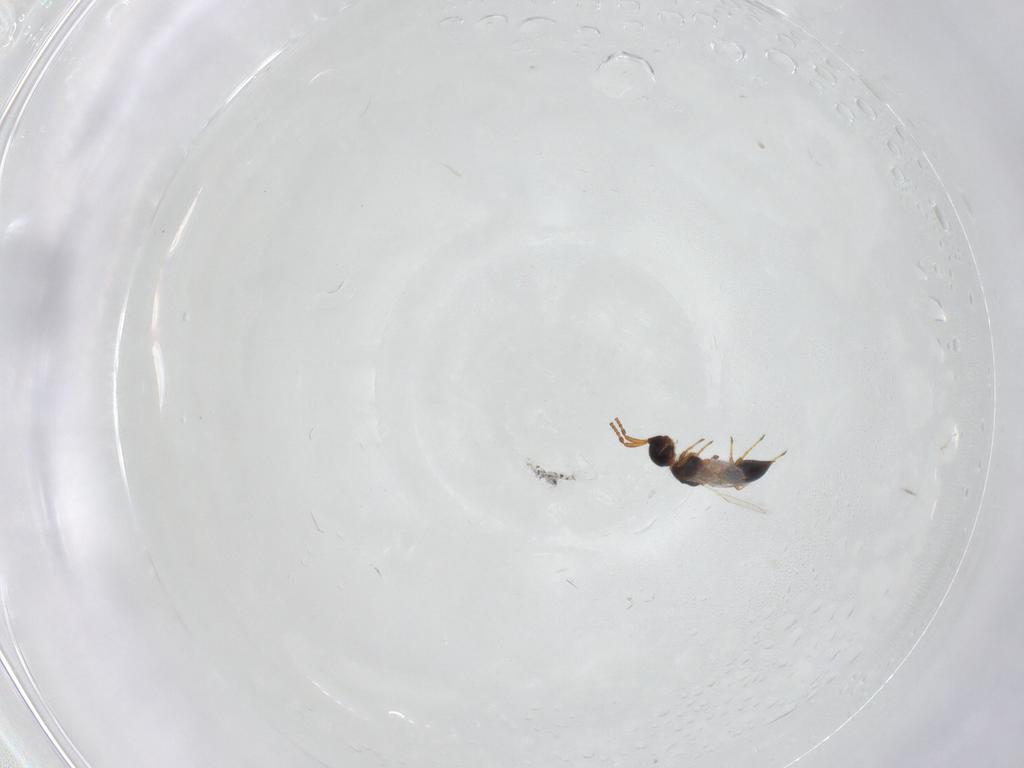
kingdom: Animalia
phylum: Arthropoda
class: Insecta
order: Hymenoptera
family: Diapriidae
